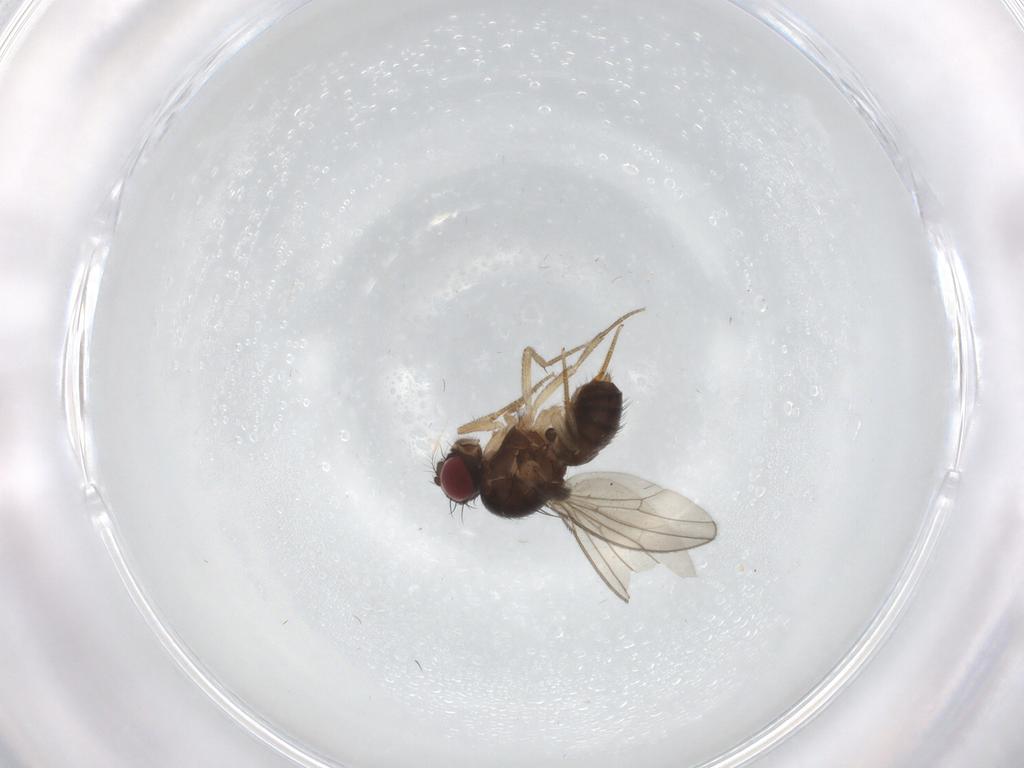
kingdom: Animalia
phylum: Arthropoda
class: Insecta
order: Diptera
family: Drosophilidae
